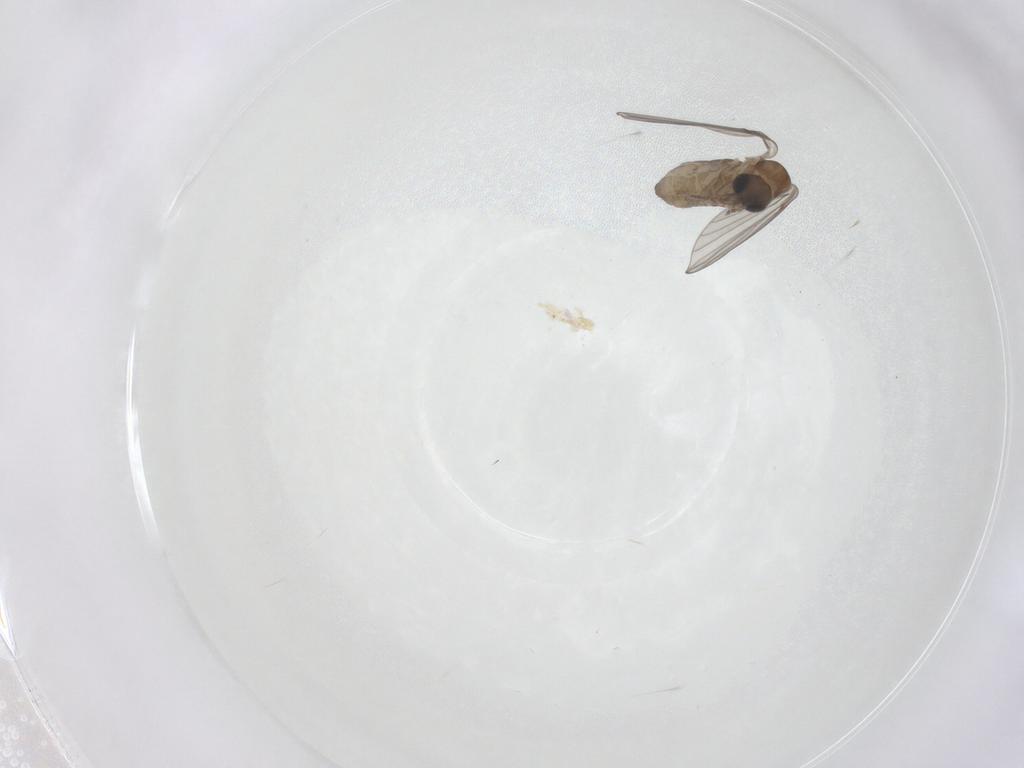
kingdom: Animalia
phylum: Arthropoda
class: Insecta
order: Diptera
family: Psychodidae
